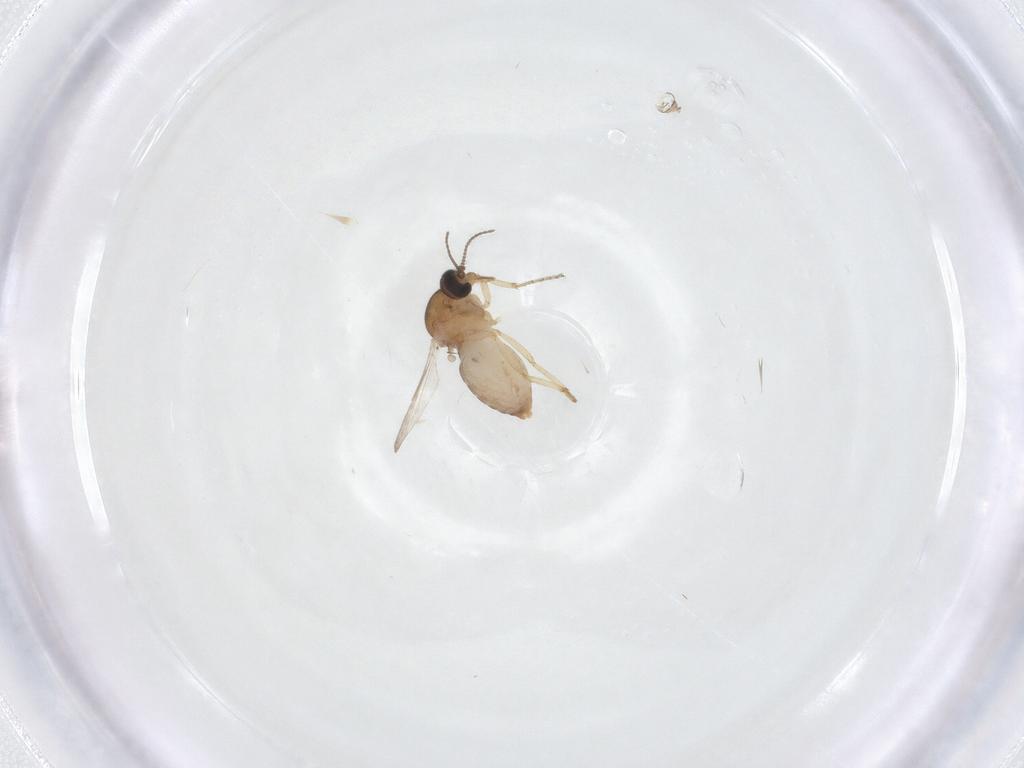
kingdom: Animalia
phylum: Arthropoda
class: Insecta
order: Diptera
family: Ceratopogonidae
